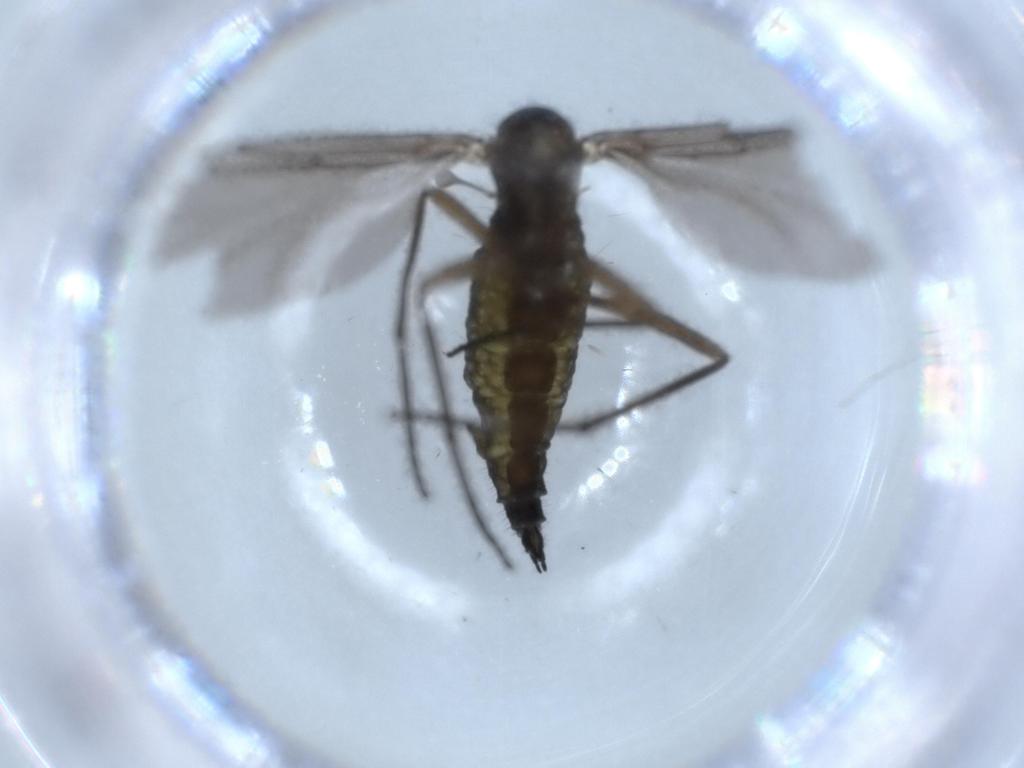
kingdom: Animalia
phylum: Arthropoda
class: Insecta
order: Diptera
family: Sciaridae
